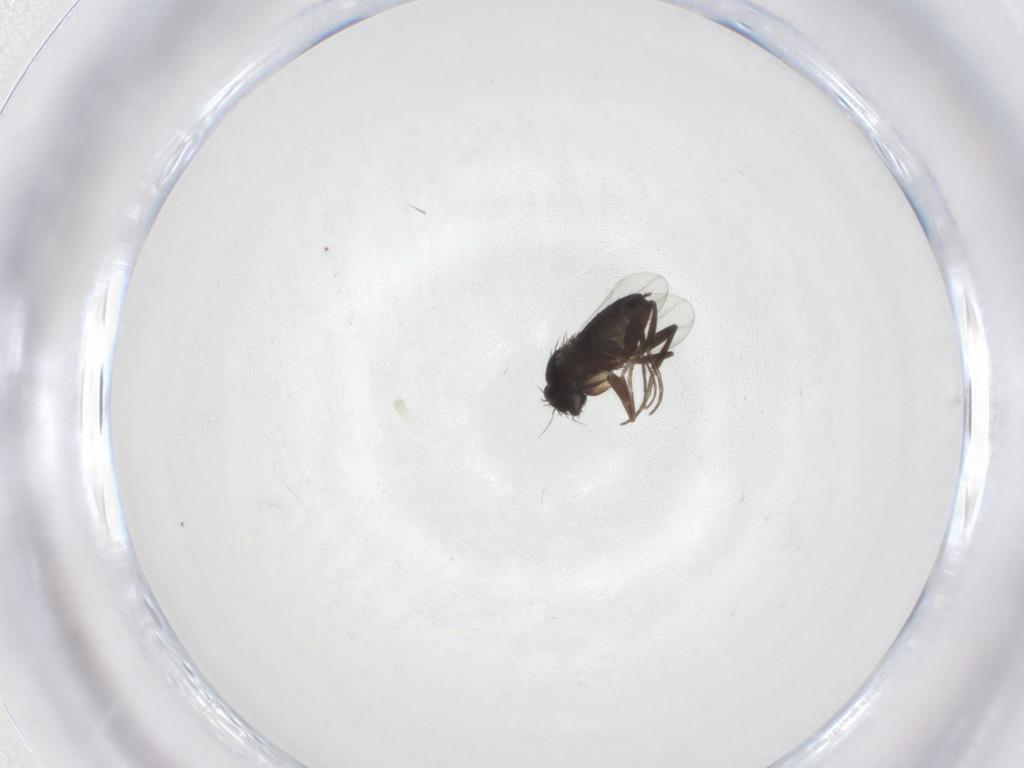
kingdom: Animalia
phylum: Arthropoda
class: Insecta
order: Diptera
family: Phoridae
